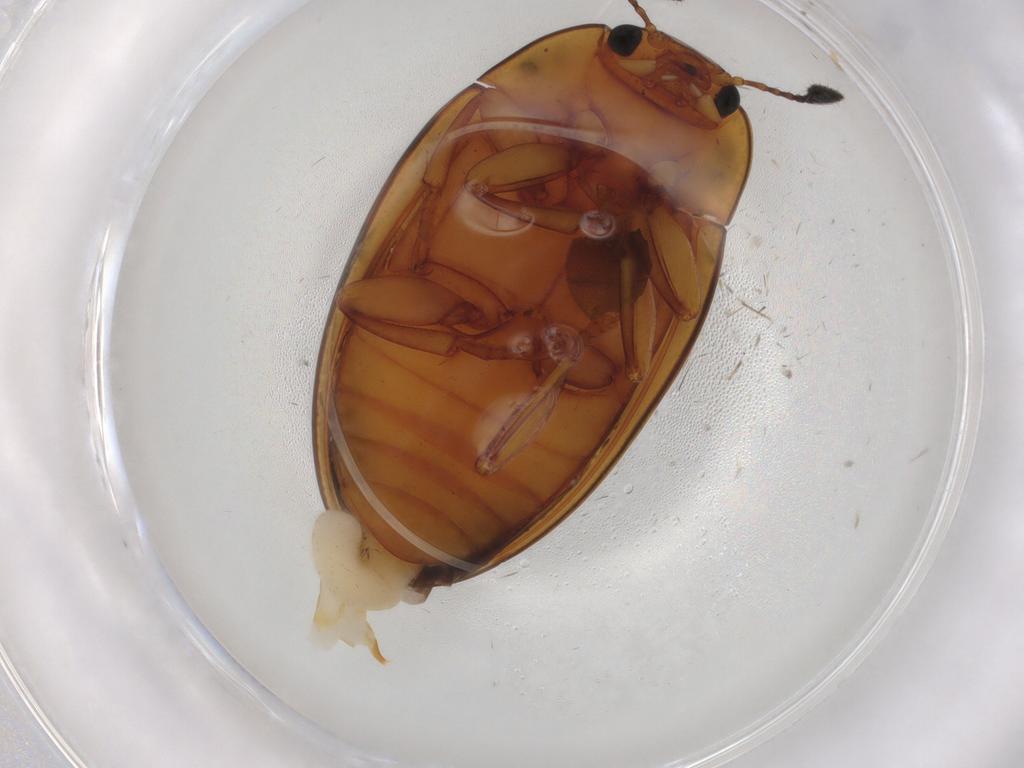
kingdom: Animalia
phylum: Arthropoda
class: Insecta
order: Coleoptera
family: Erotylidae
